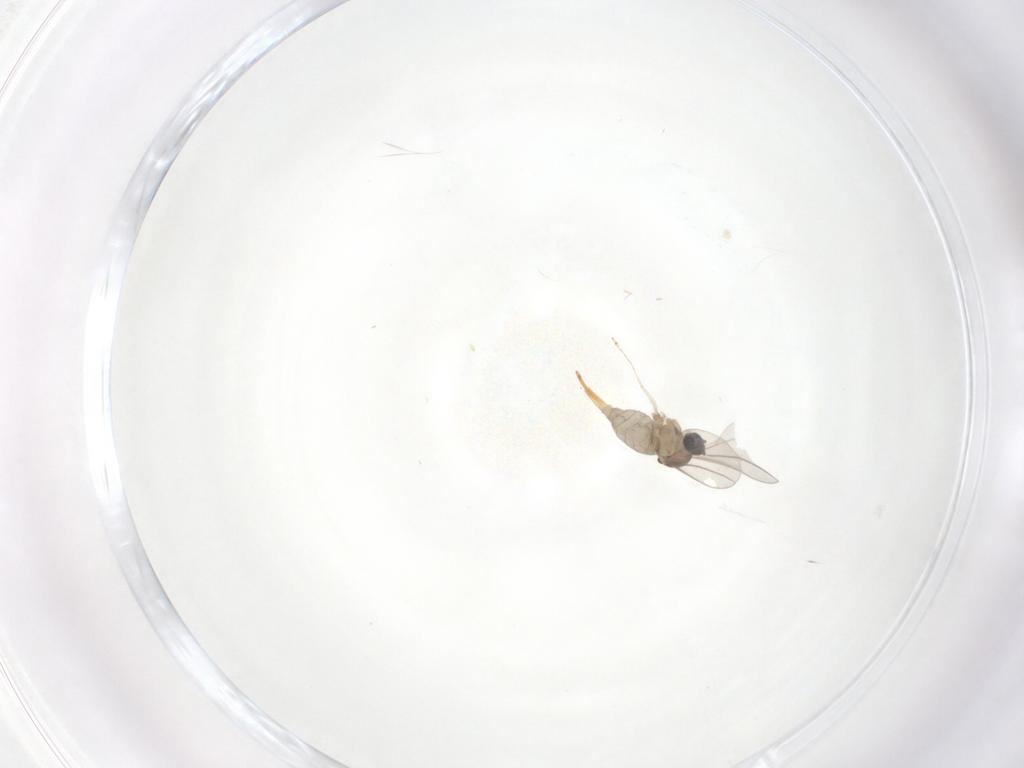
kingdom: Animalia
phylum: Arthropoda
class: Insecta
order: Diptera
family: Cecidomyiidae
